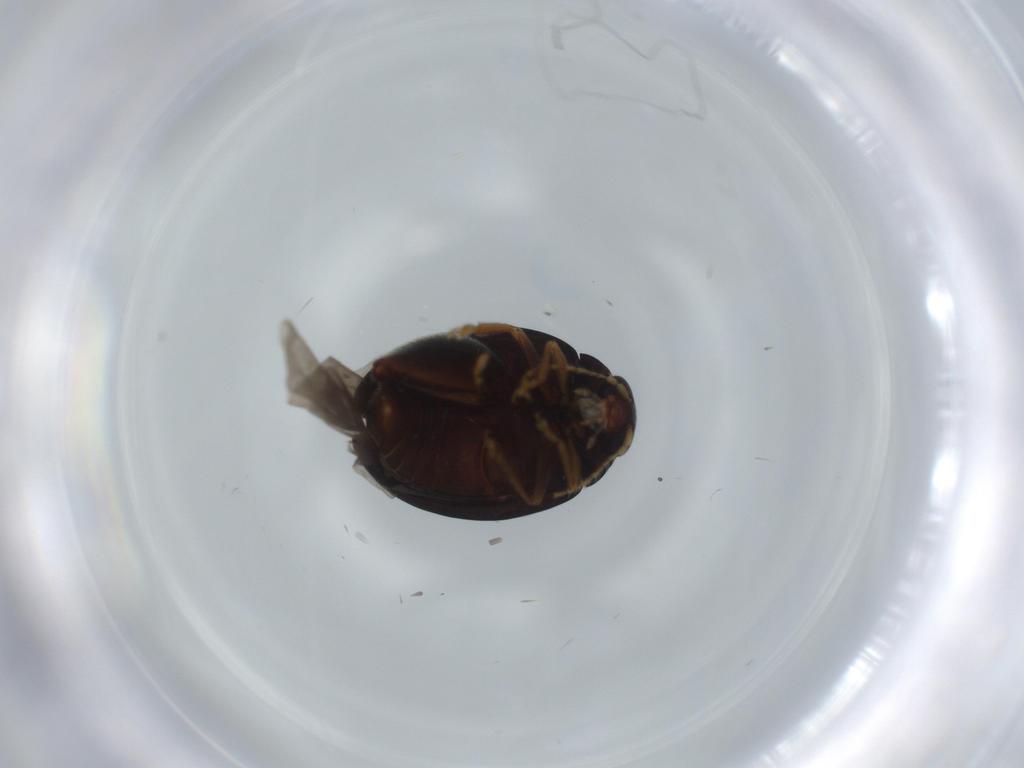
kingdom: Animalia
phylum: Arthropoda
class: Insecta
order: Coleoptera
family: Chrysomelidae
